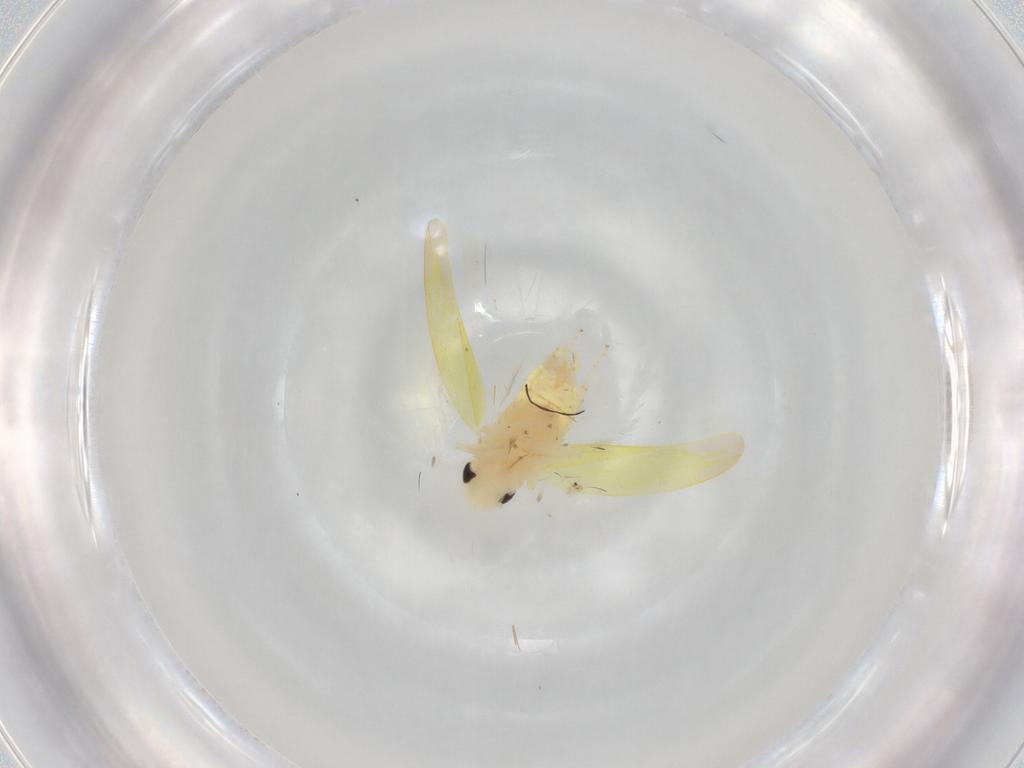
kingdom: Animalia
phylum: Arthropoda
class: Insecta
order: Hemiptera
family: Cicadellidae
